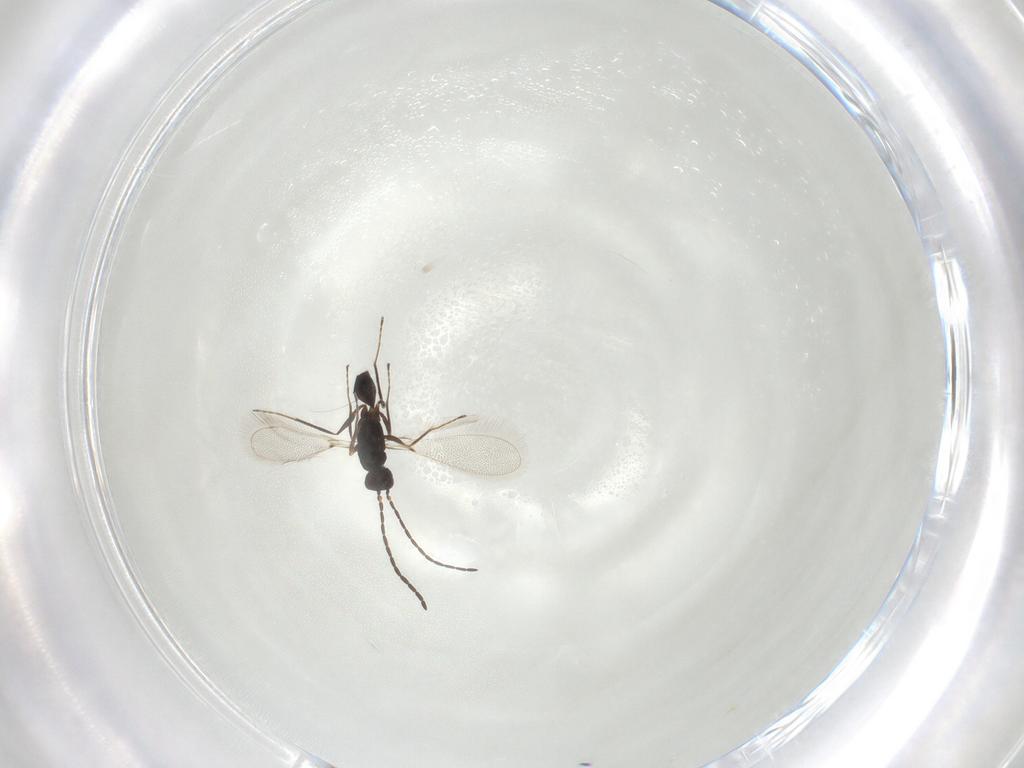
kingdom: Animalia
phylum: Arthropoda
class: Insecta
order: Hymenoptera
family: Mymaridae
